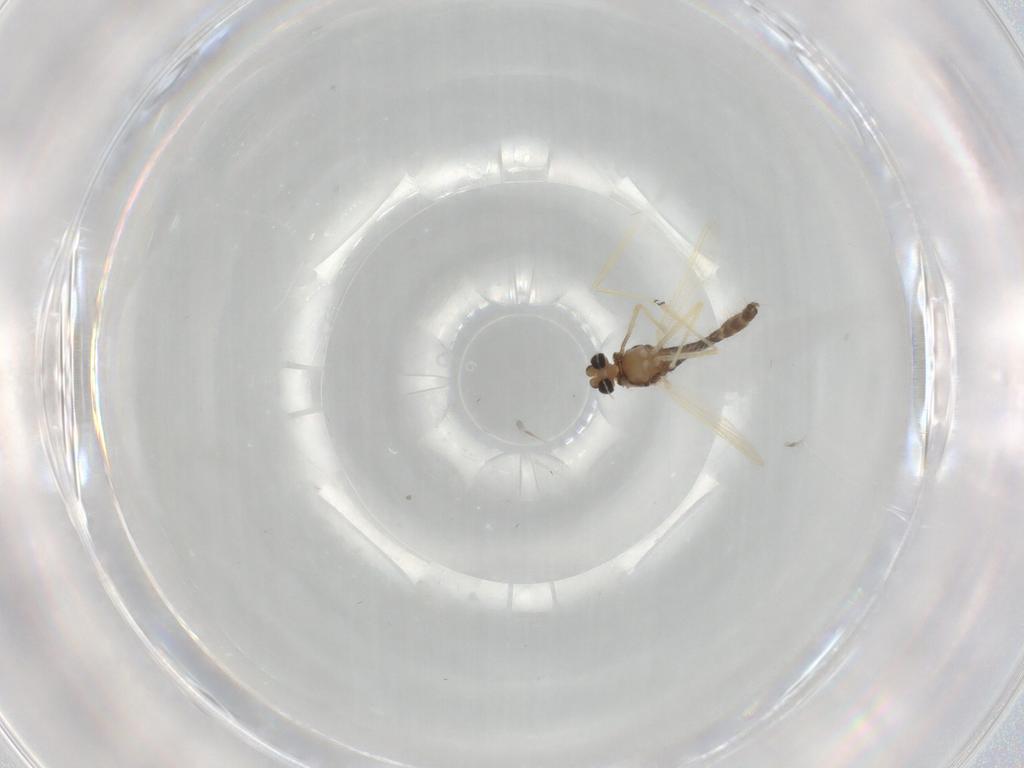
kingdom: Animalia
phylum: Arthropoda
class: Insecta
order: Diptera
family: Chironomidae
